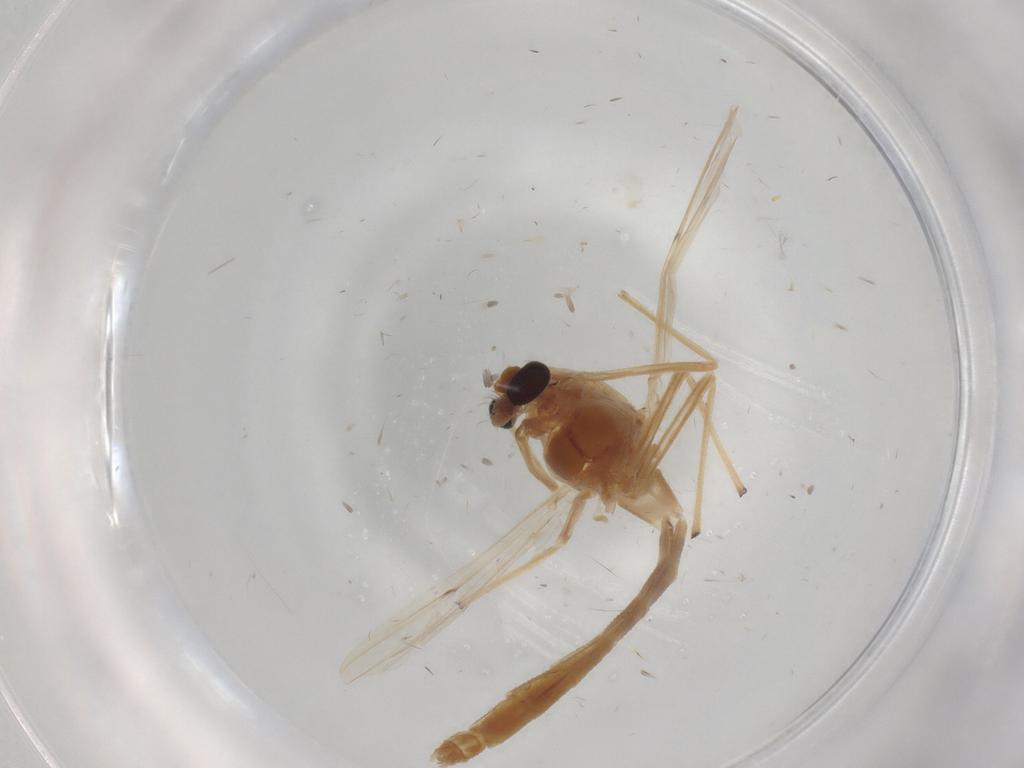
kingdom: Animalia
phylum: Arthropoda
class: Insecta
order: Diptera
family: Chironomidae
